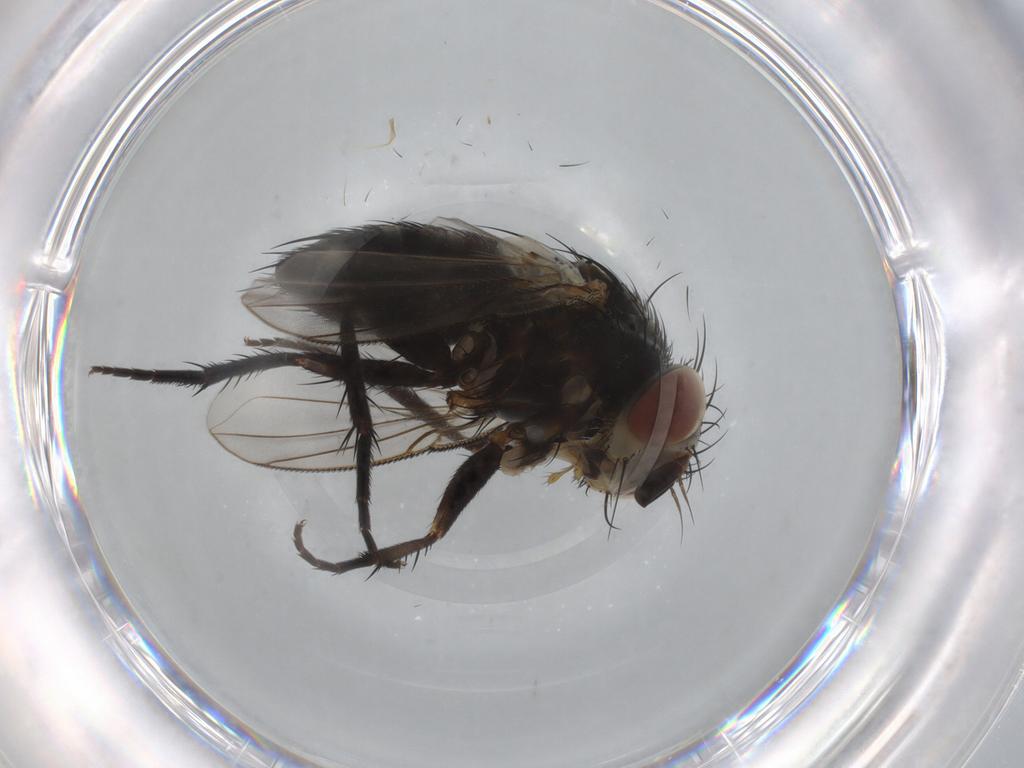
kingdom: Animalia
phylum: Arthropoda
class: Insecta
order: Diptera
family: Tachinidae
